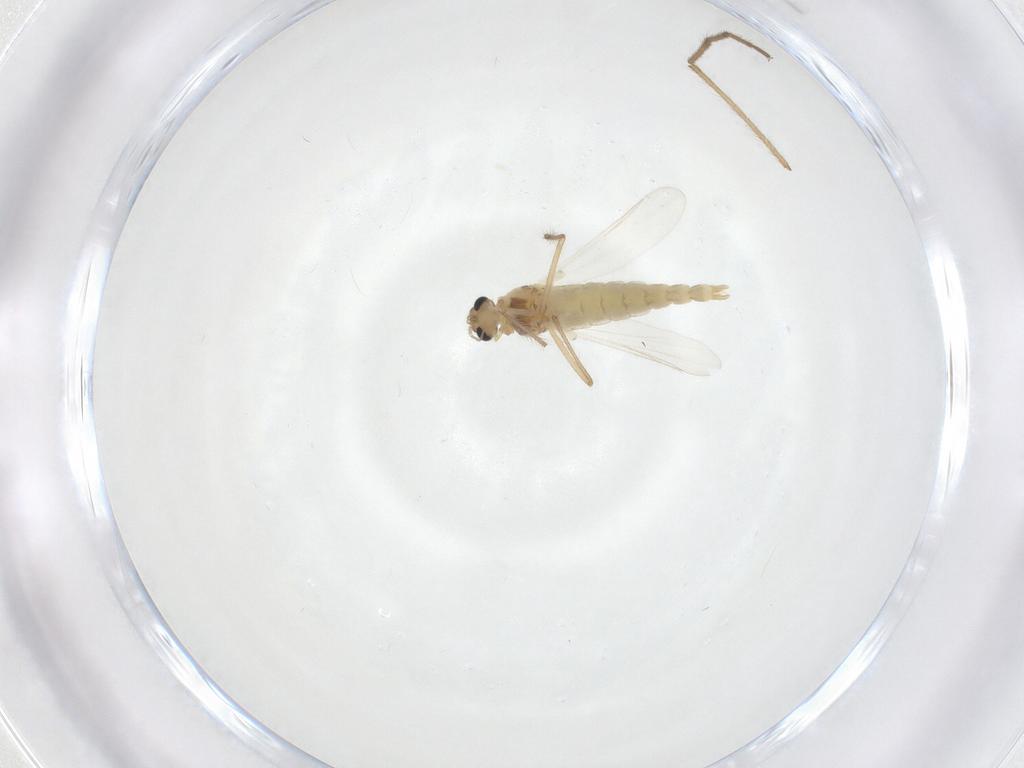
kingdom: Animalia
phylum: Arthropoda
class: Insecta
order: Diptera
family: Chironomidae
